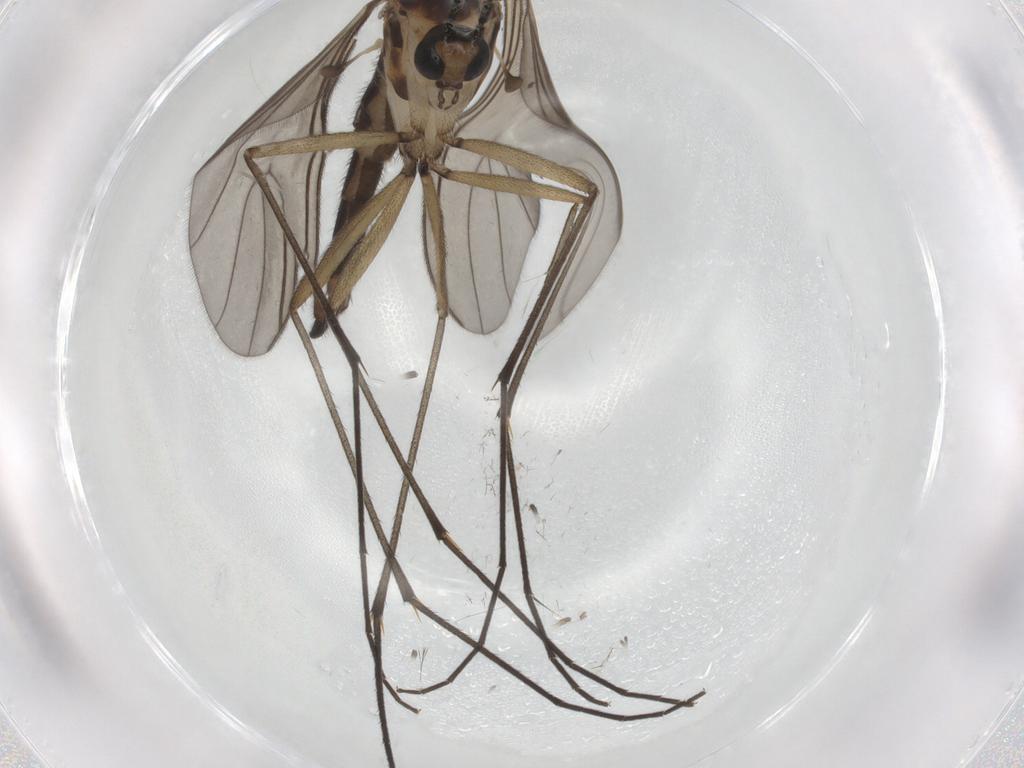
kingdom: Animalia
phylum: Arthropoda
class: Insecta
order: Diptera
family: Sciaridae
